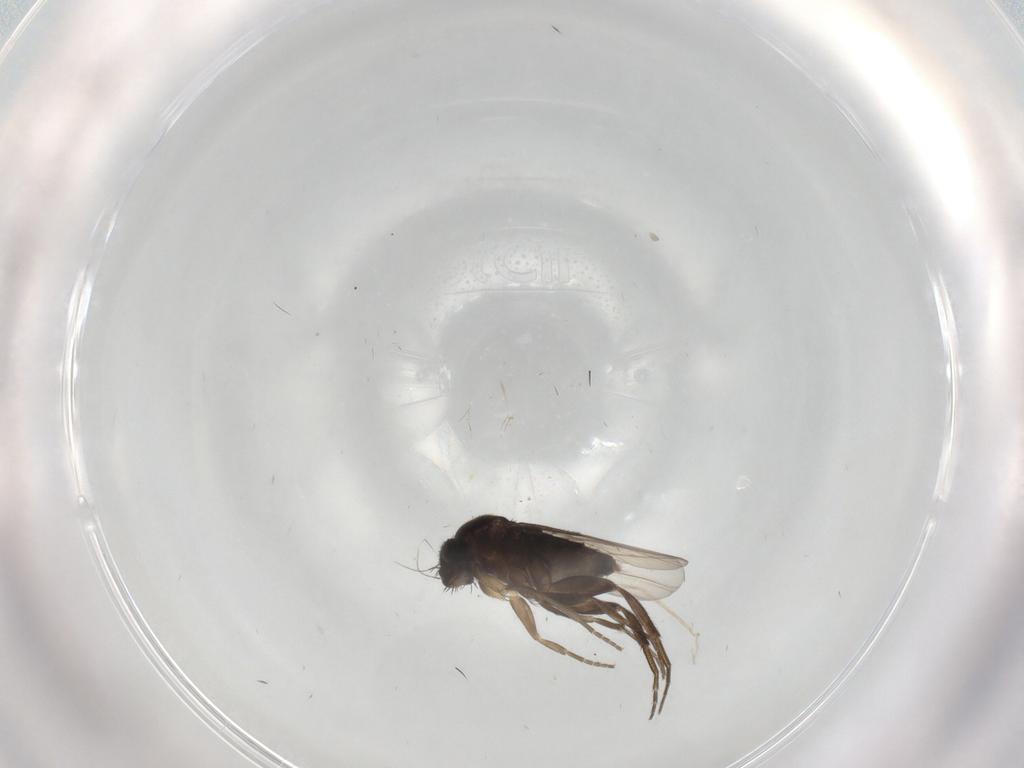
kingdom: Animalia
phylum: Arthropoda
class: Insecta
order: Diptera
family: Phoridae
